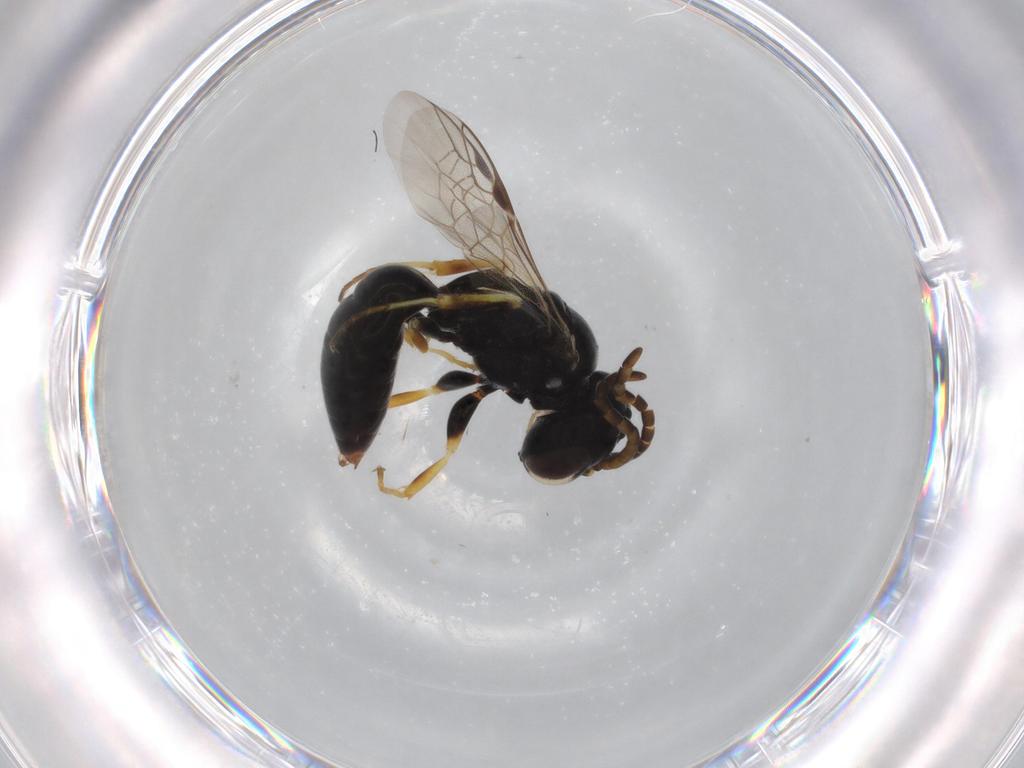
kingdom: Animalia
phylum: Arthropoda
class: Insecta
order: Hymenoptera
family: Crabronidae
